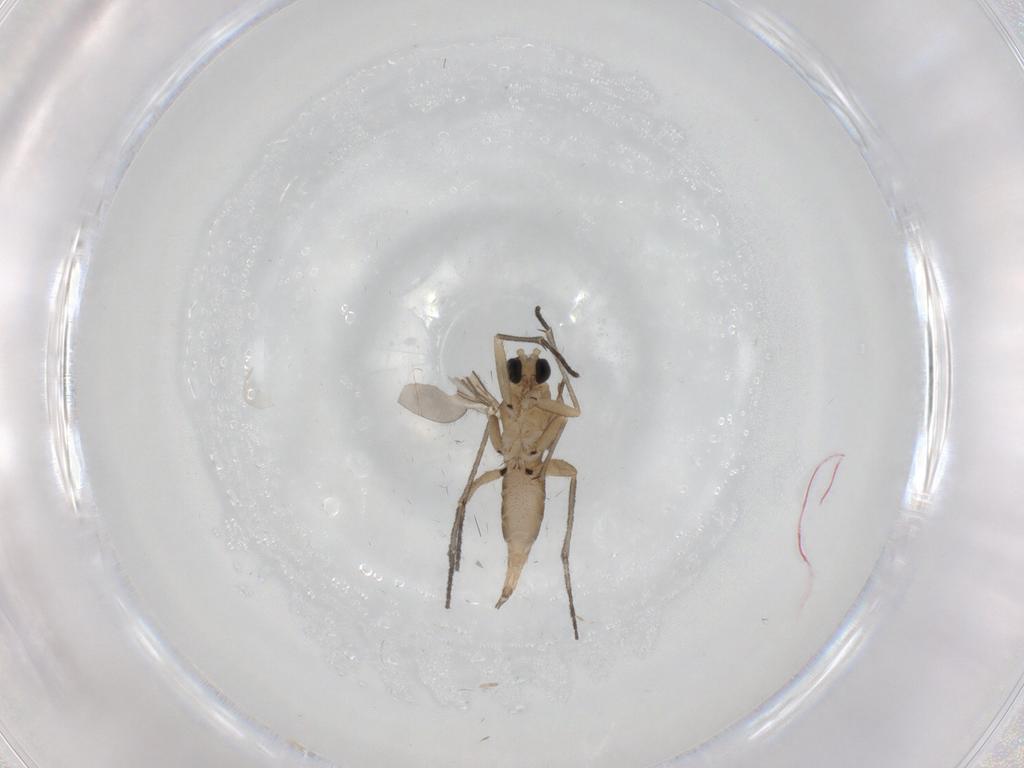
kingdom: Animalia
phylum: Arthropoda
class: Insecta
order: Diptera
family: Sciaridae
